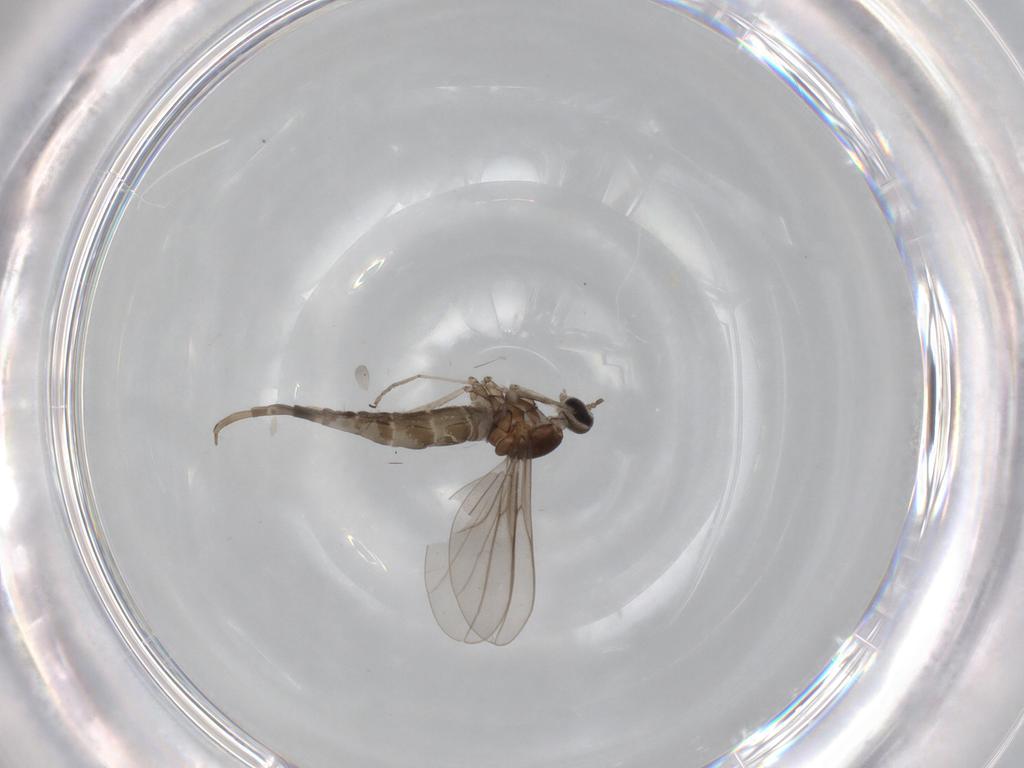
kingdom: Animalia
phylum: Arthropoda
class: Insecta
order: Diptera
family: Cecidomyiidae
